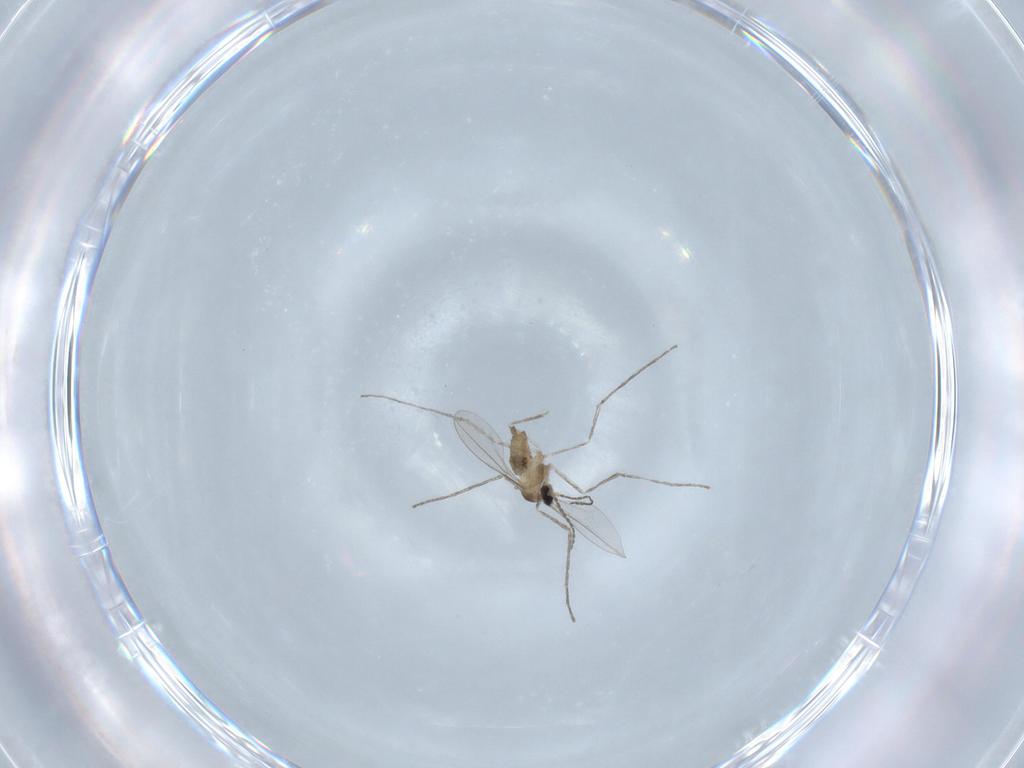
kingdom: Animalia
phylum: Arthropoda
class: Insecta
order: Diptera
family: Cecidomyiidae
